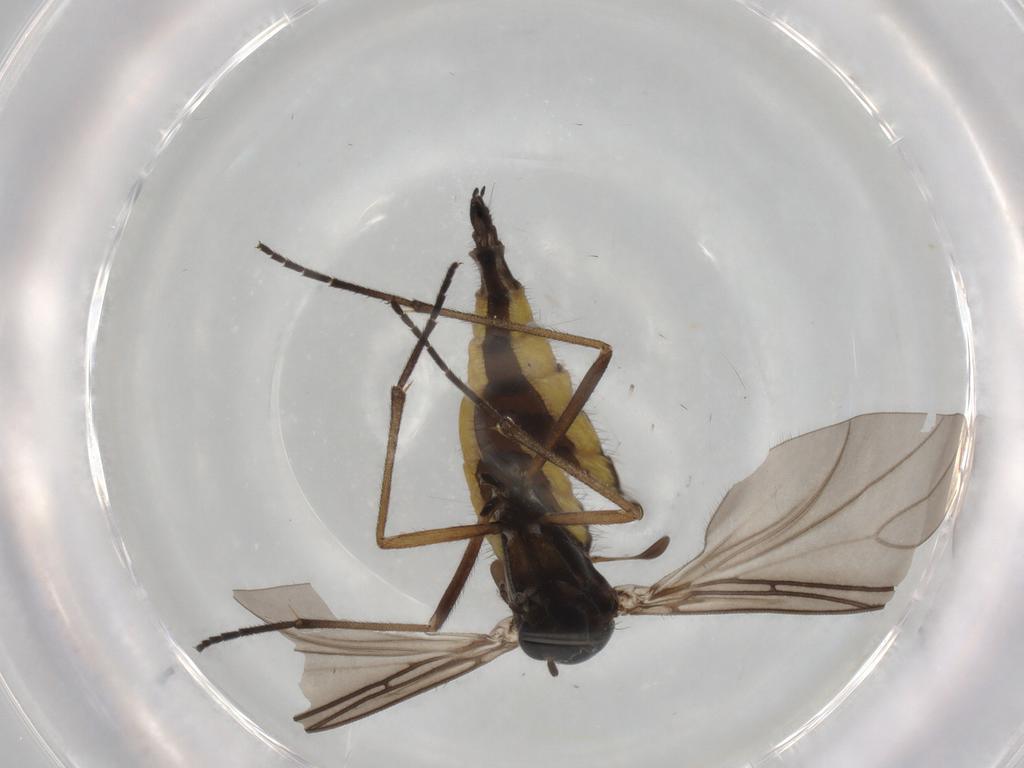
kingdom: Animalia
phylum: Arthropoda
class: Insecta
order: Diptera
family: Sciaridae
